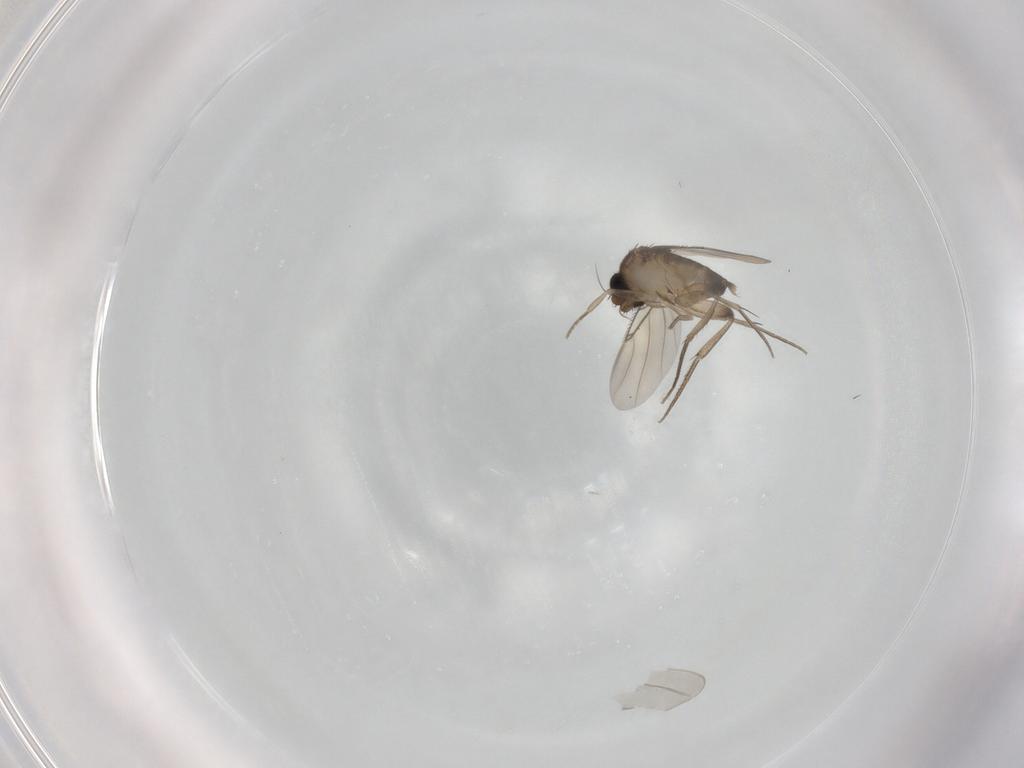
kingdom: Animalia
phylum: Arthropoda
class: Insecta
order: Diptera
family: Phoridae
